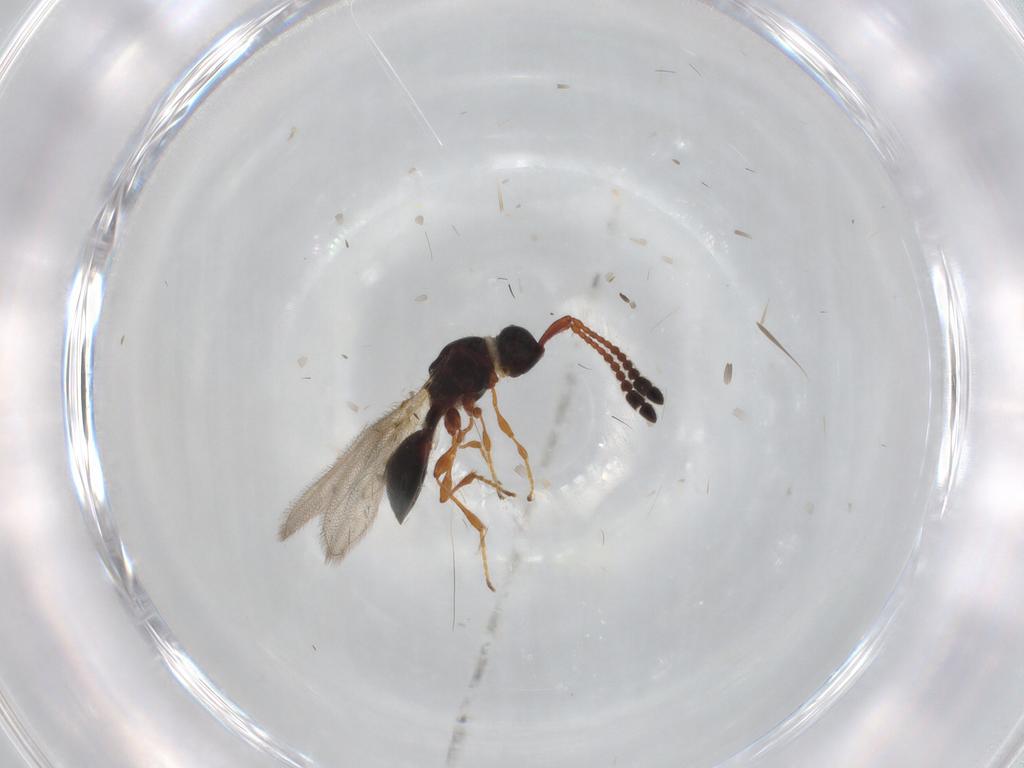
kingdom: Animalia
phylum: Arthropoda
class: Insecta
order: Hymenoptera
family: Diapriidae
